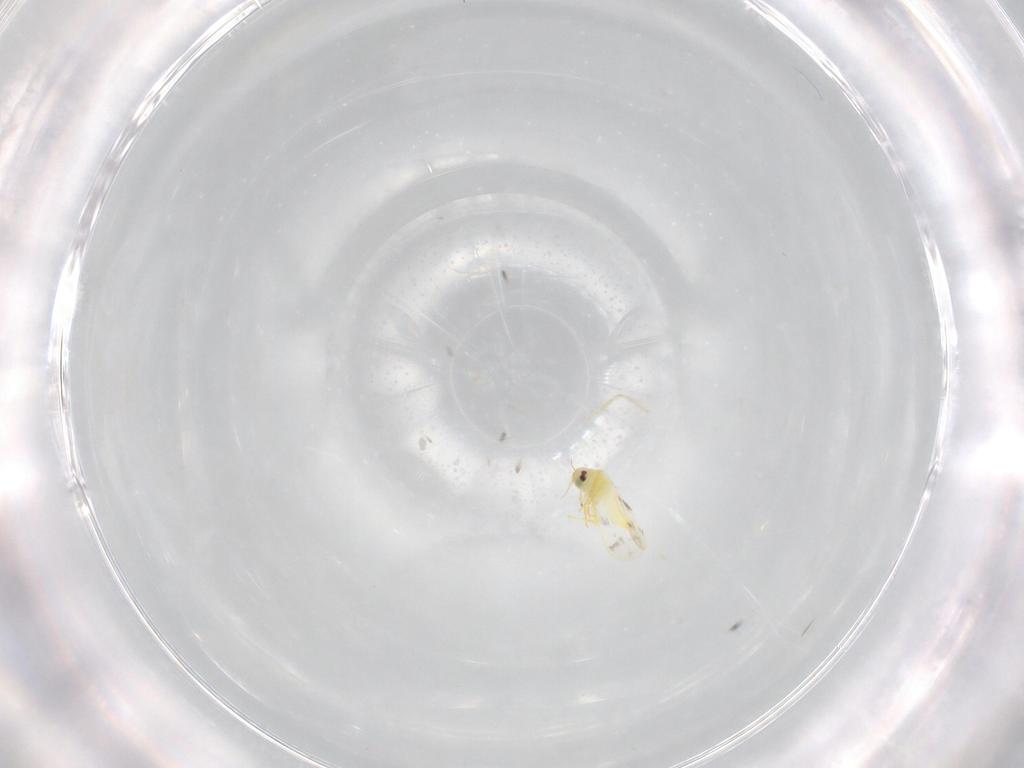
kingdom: Animalia
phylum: Arthropoda
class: Insecta
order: Hemiptera
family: Aleyrodidae
